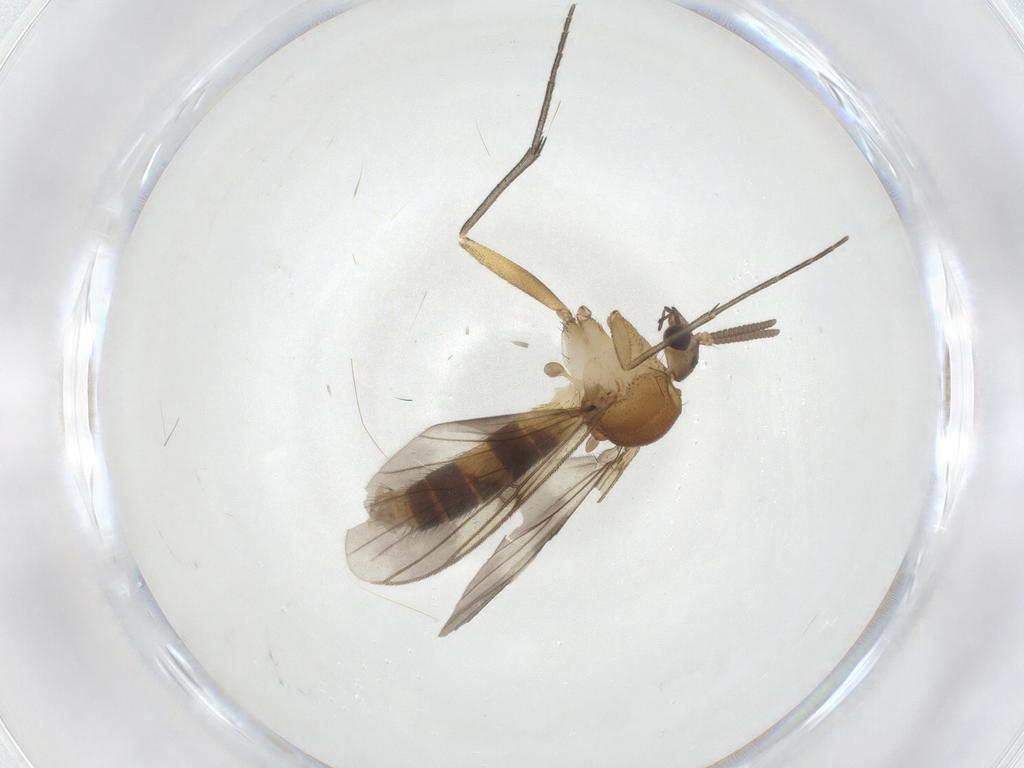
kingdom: Animalia
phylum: Arthropoda
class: Insecta
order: Diptera
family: Mycetophilidae
